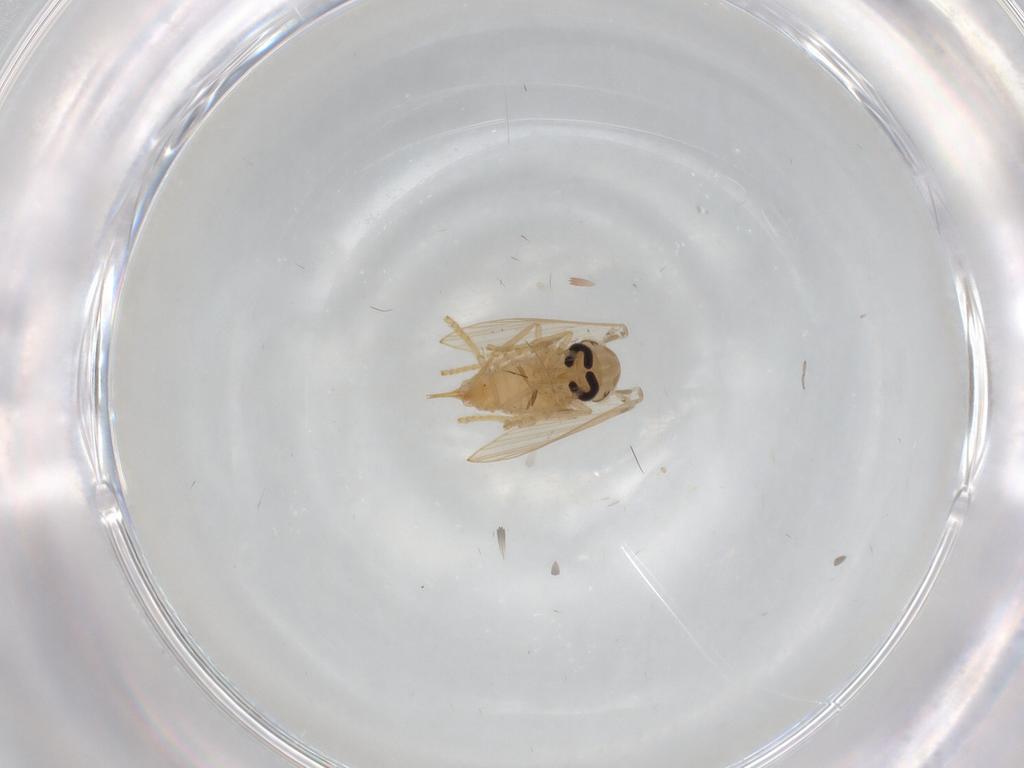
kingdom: Animalia
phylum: Arthropoda
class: Insecta
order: Diptera
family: Psychodidae
